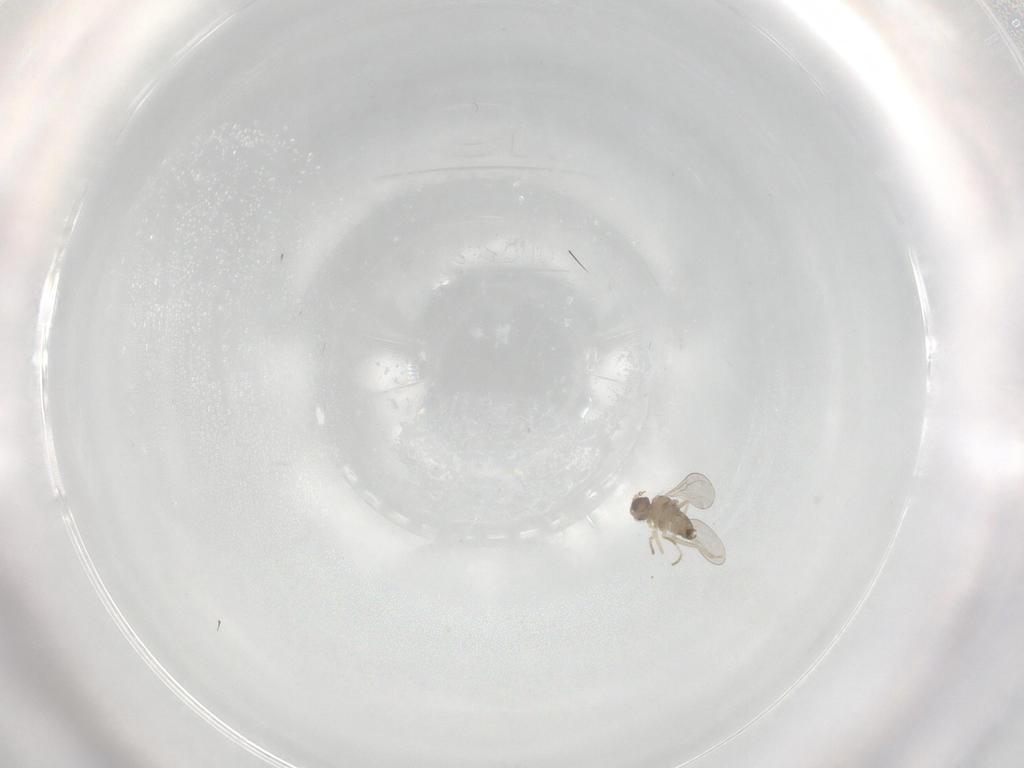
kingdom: Animalia
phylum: Arthropoda
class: Insecta
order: Diptera
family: Cecidomyiidae
